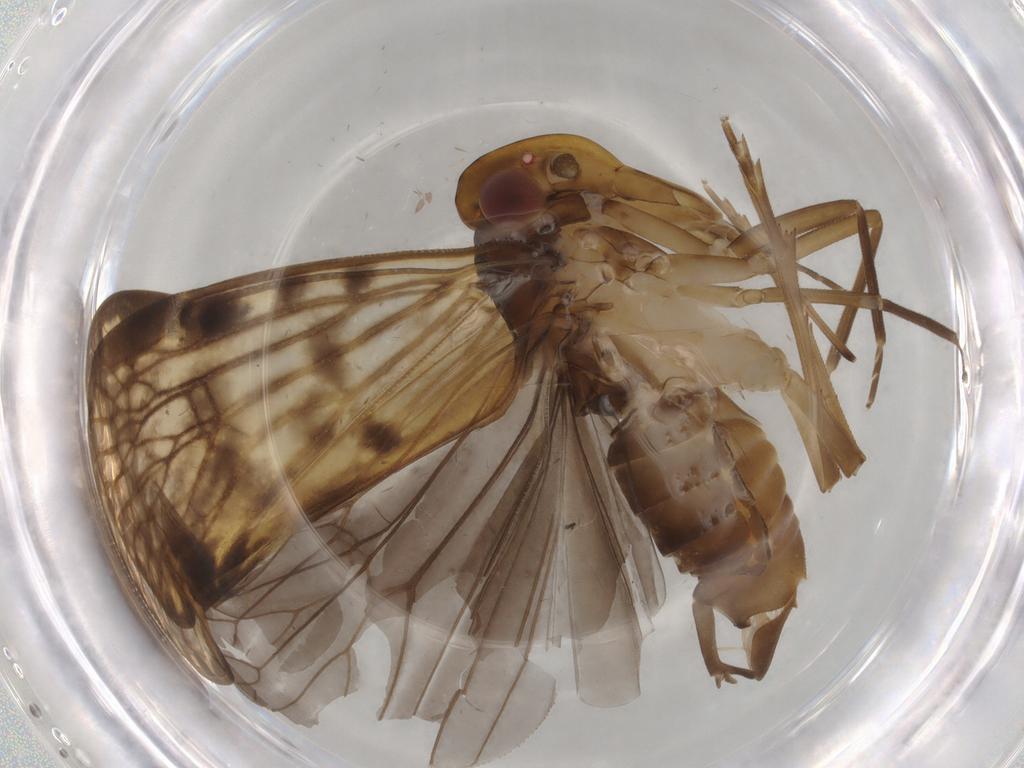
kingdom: Animalia
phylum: Arthropoda
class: Insecta
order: Hemiptera
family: Cixiidae
